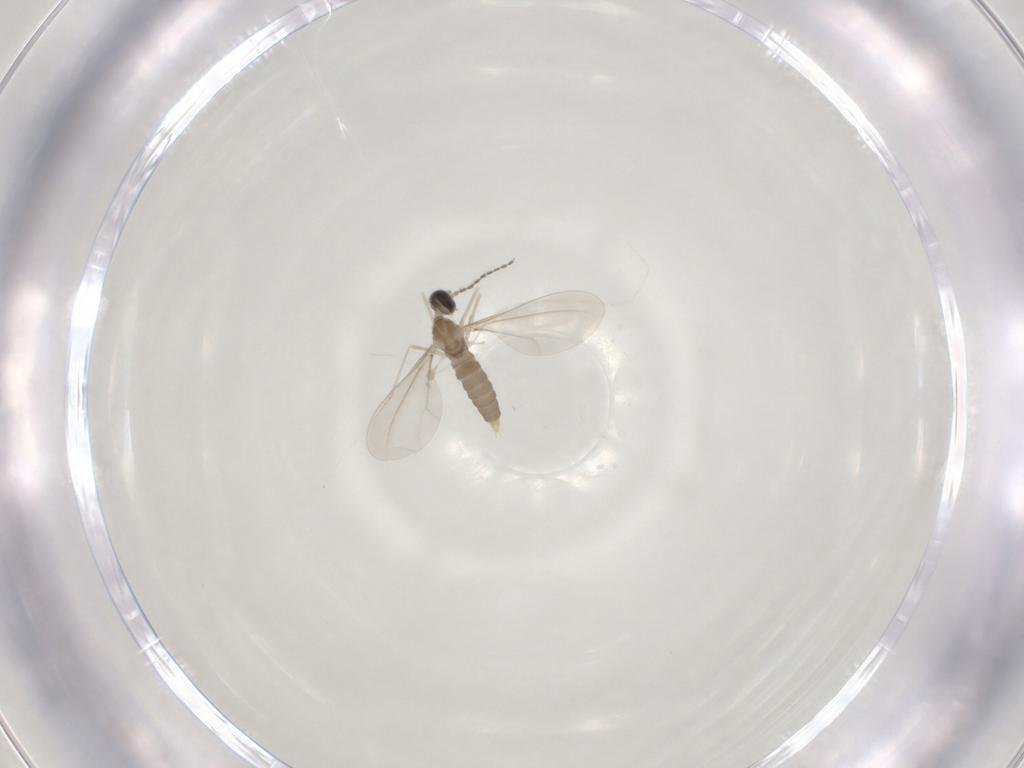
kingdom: Animalia
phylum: Arthropoda
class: Insecta
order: Diptera
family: Cecidomyiidae
